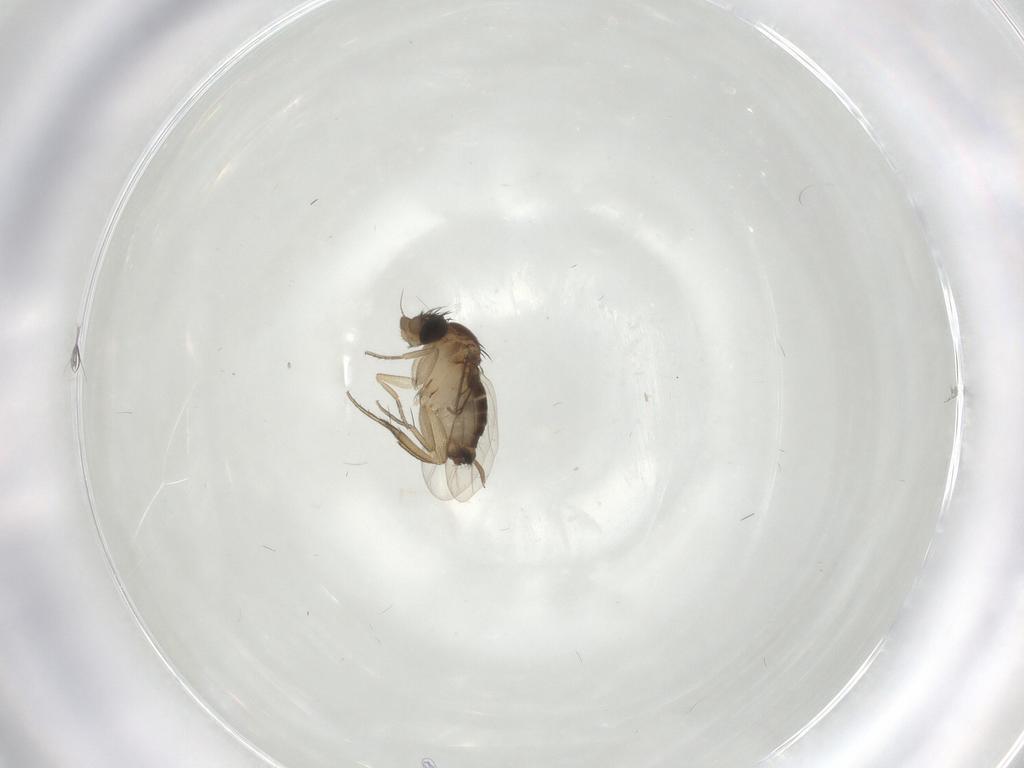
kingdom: Animalia
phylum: Arthropoda
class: Insecta
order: Diptera
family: Phoridae
